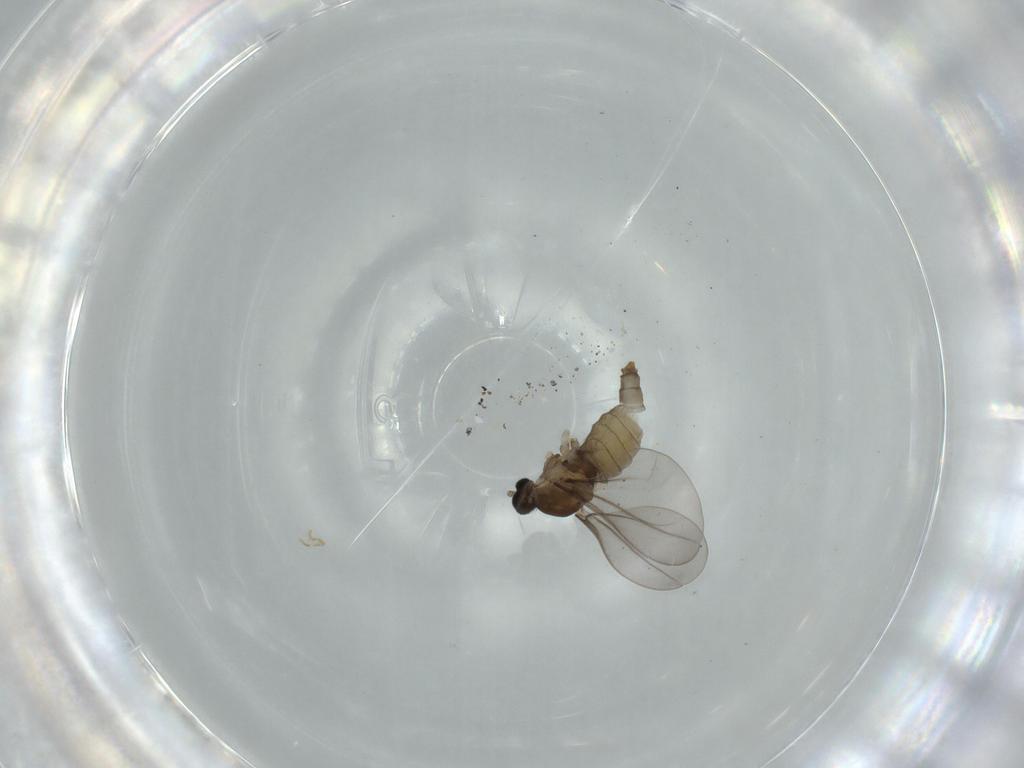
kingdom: Animalia
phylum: Arthropoda
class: Insecta
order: Diptera
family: Cecidomyiidae
